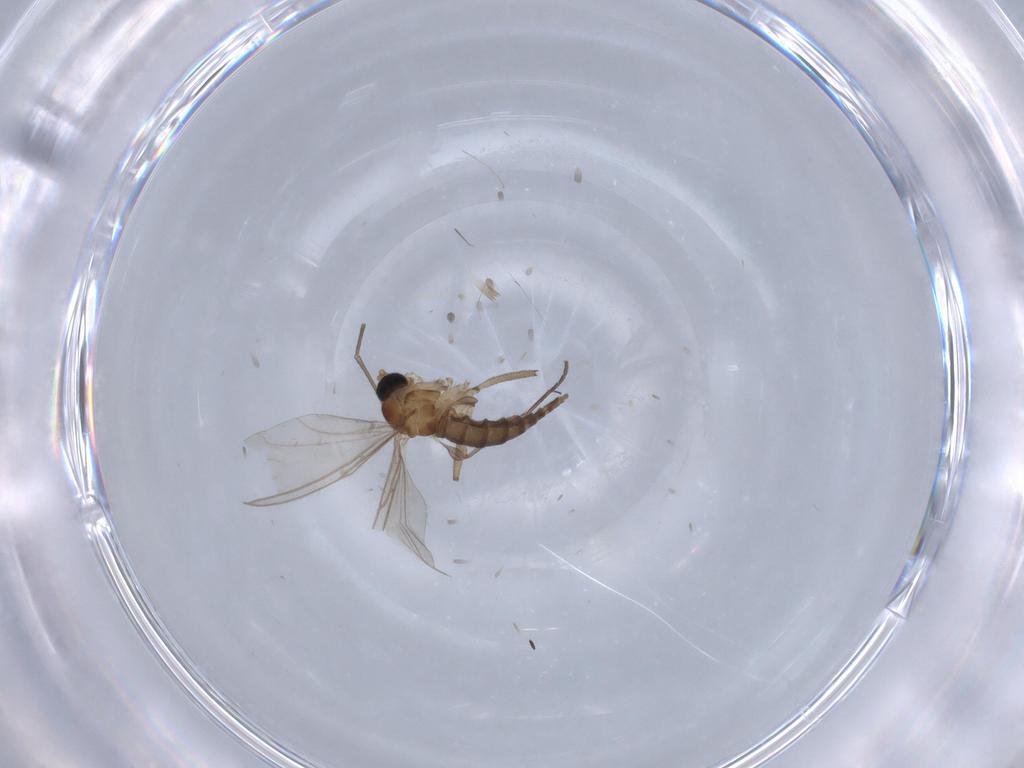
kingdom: Animalia
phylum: Arthropoda
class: Insecta
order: Diptera
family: Sciaridae
